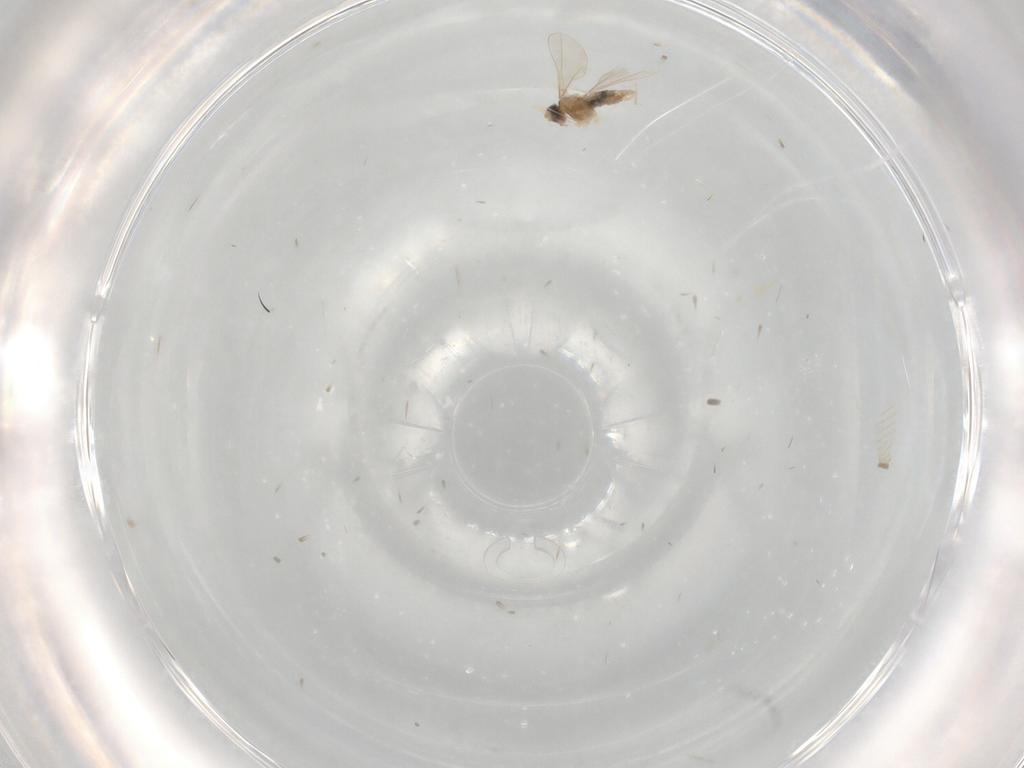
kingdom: Animalia
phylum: Arthropoda
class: Insecta
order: Diptera
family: Chironomidae
